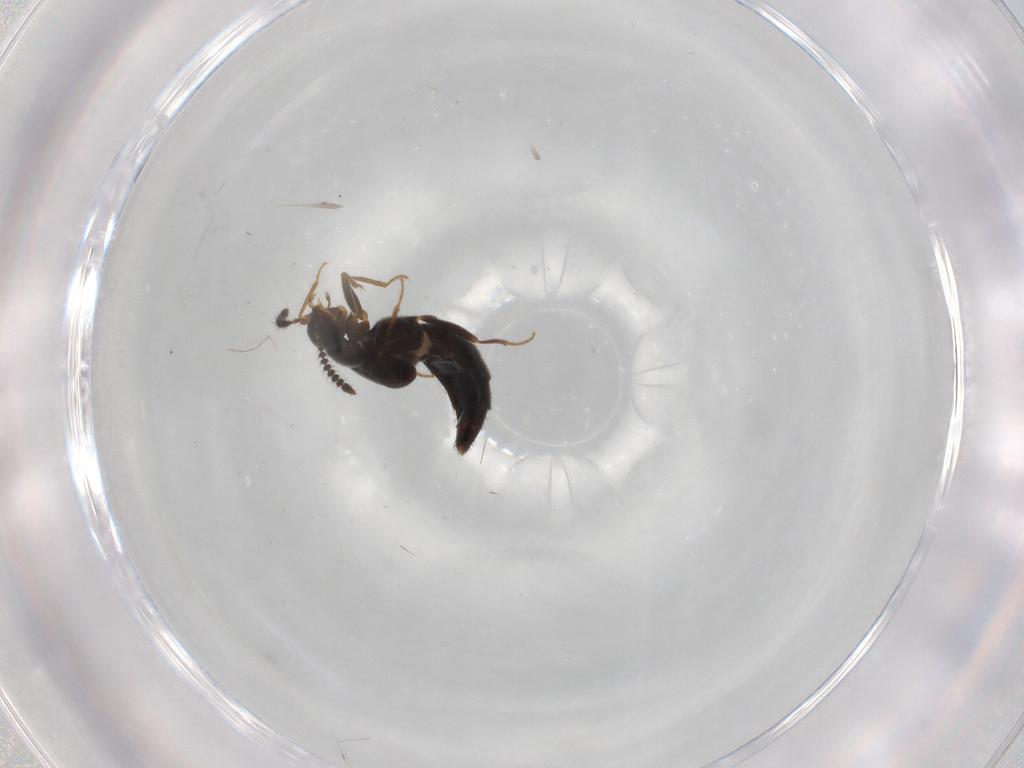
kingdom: Animalia
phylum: Arthropoda
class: Insecta
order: Coleoptera
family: Staphylinidae
